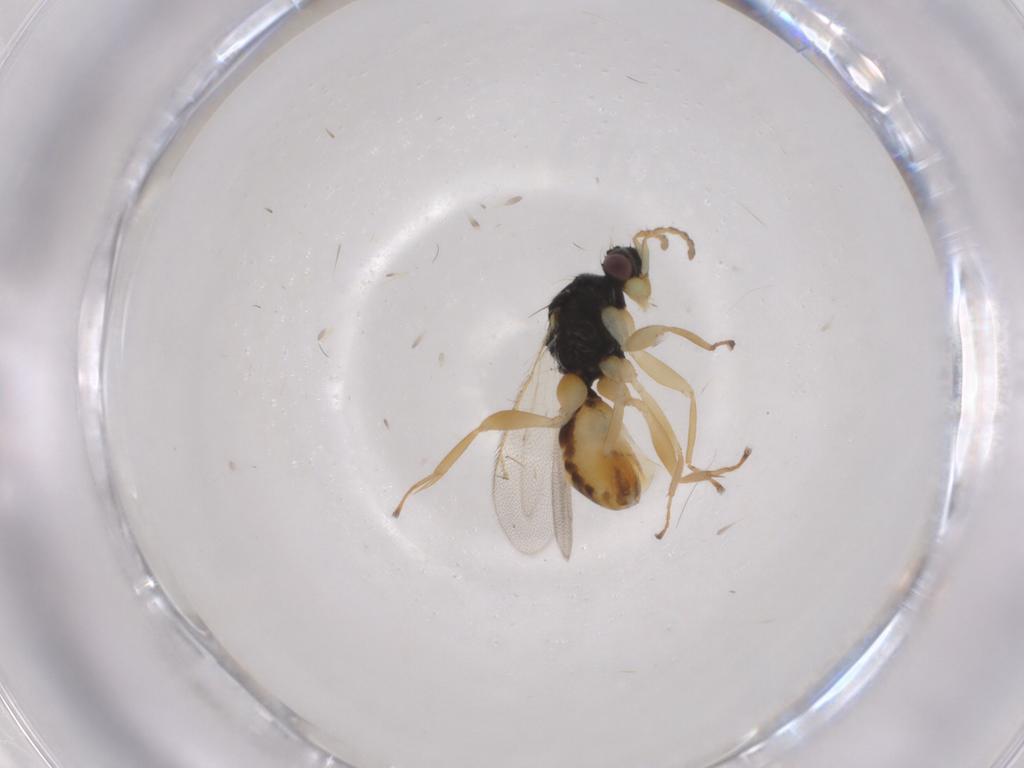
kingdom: Animalia
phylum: Arthropoda
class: Insecta
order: Hymenoptera
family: Eulophidae
